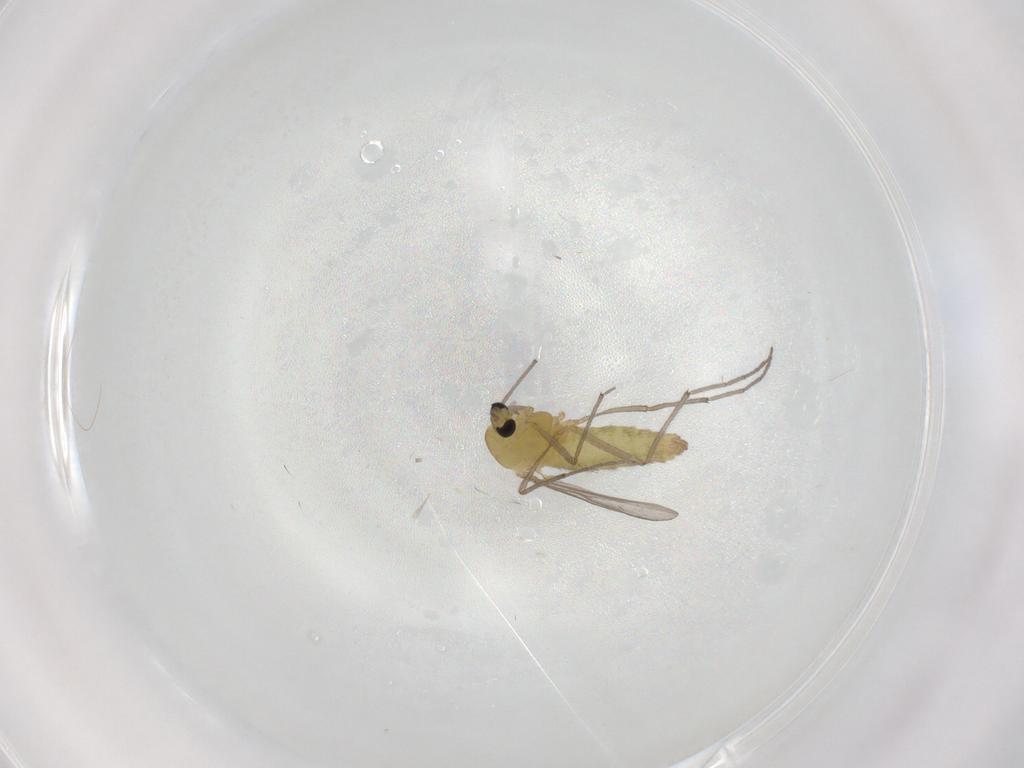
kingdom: Animalia
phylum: Arthropoda
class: Insecta
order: Diptera
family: Chironomidae
